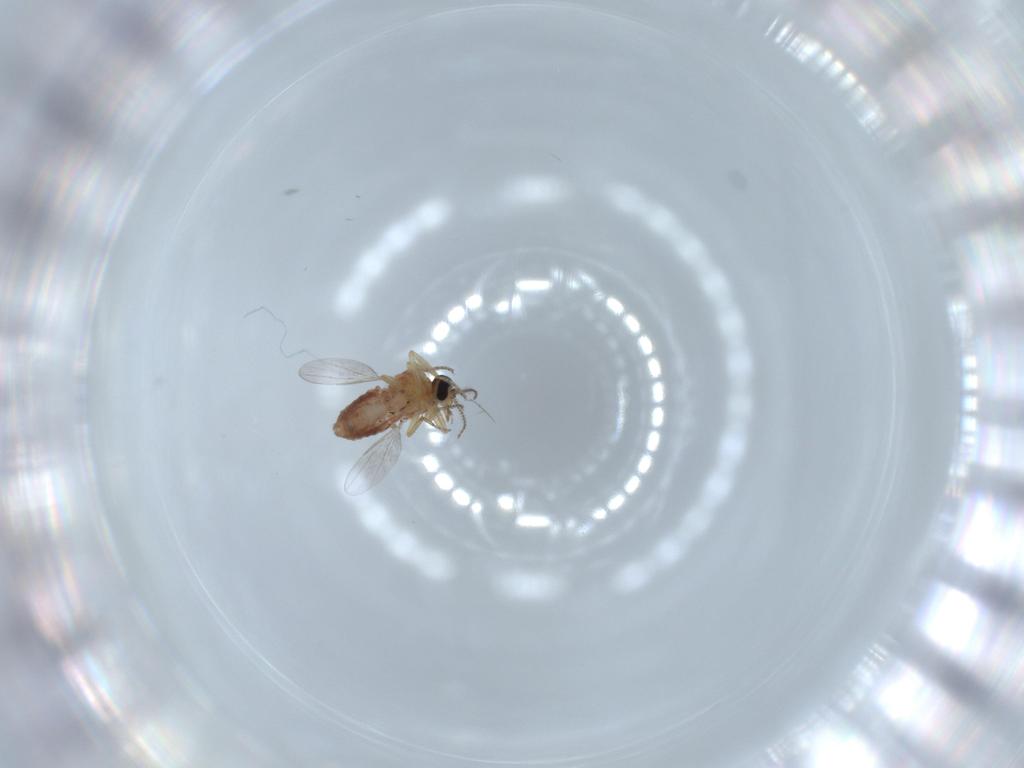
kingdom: Animalia
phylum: Arthropoda
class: Insecta
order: Diptera
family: Ceratopogonidae
